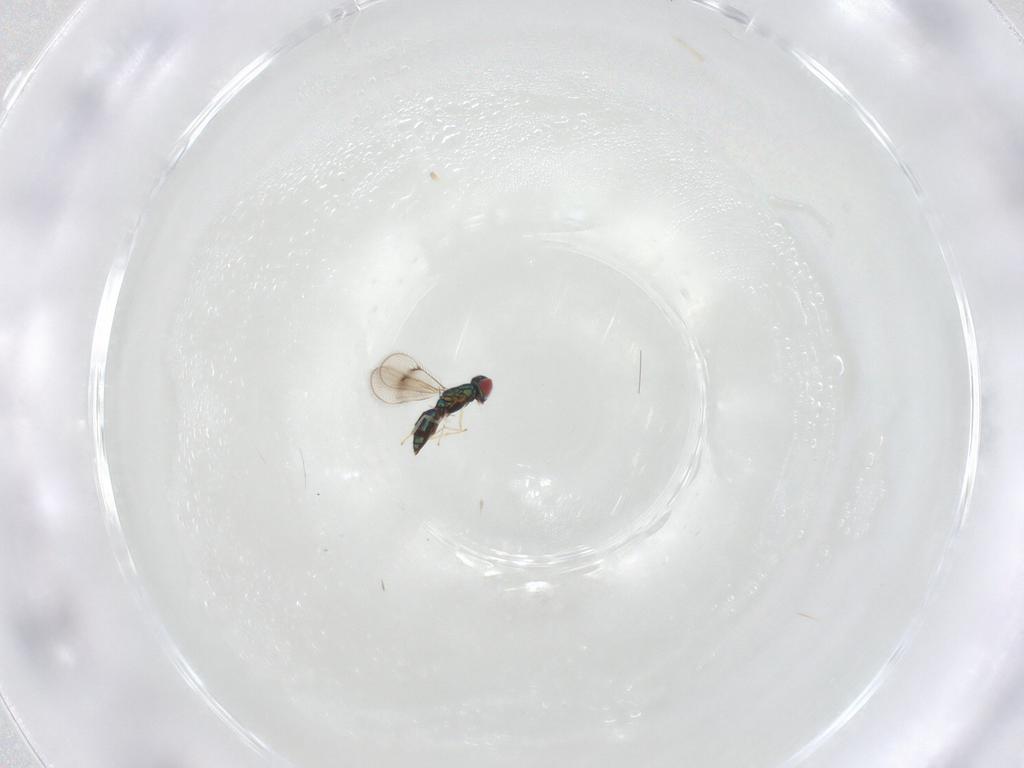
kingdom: Animalia
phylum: Arthropoda
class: Insecta
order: Hymenoptera
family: Eulophidae
